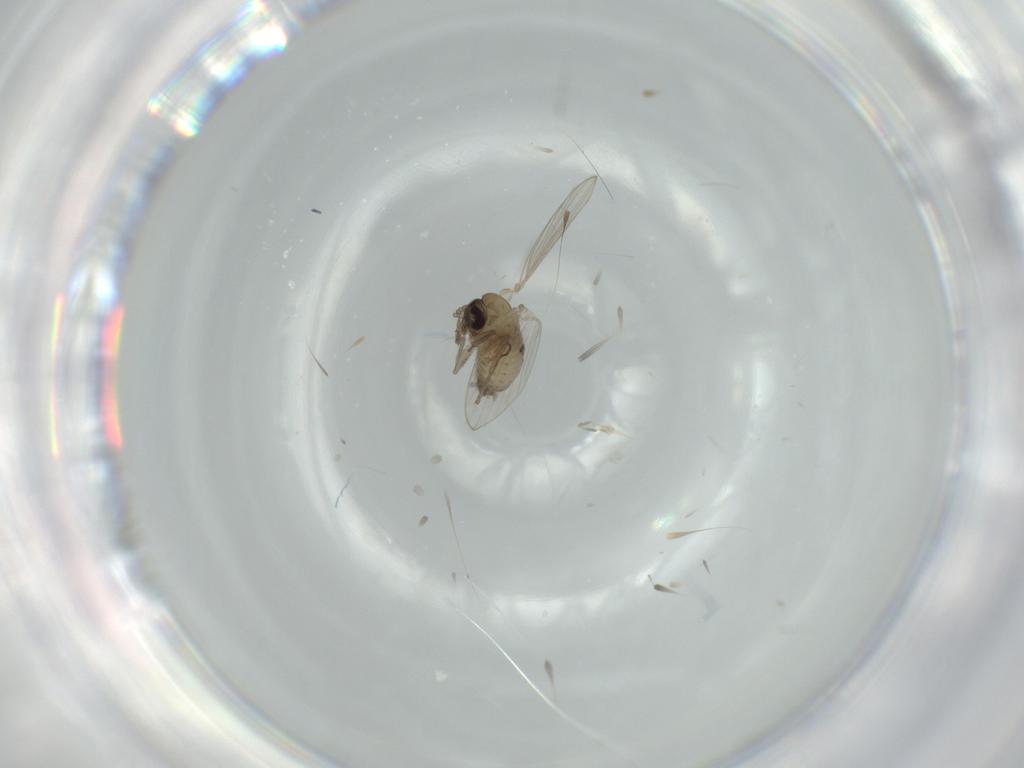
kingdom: Animalia
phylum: Arthropoda
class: Insecta
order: Diptera
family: Psychodidae
